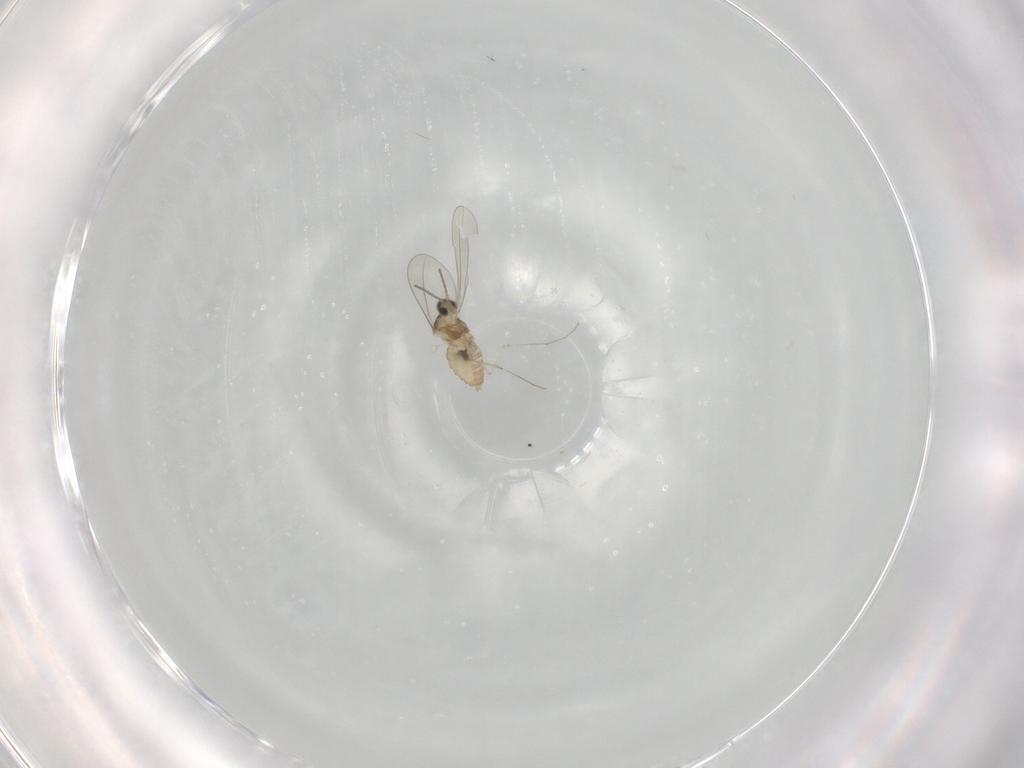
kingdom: Animalia
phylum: Arthropoda
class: Insecta
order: Diptera
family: Cecidomyiidae
